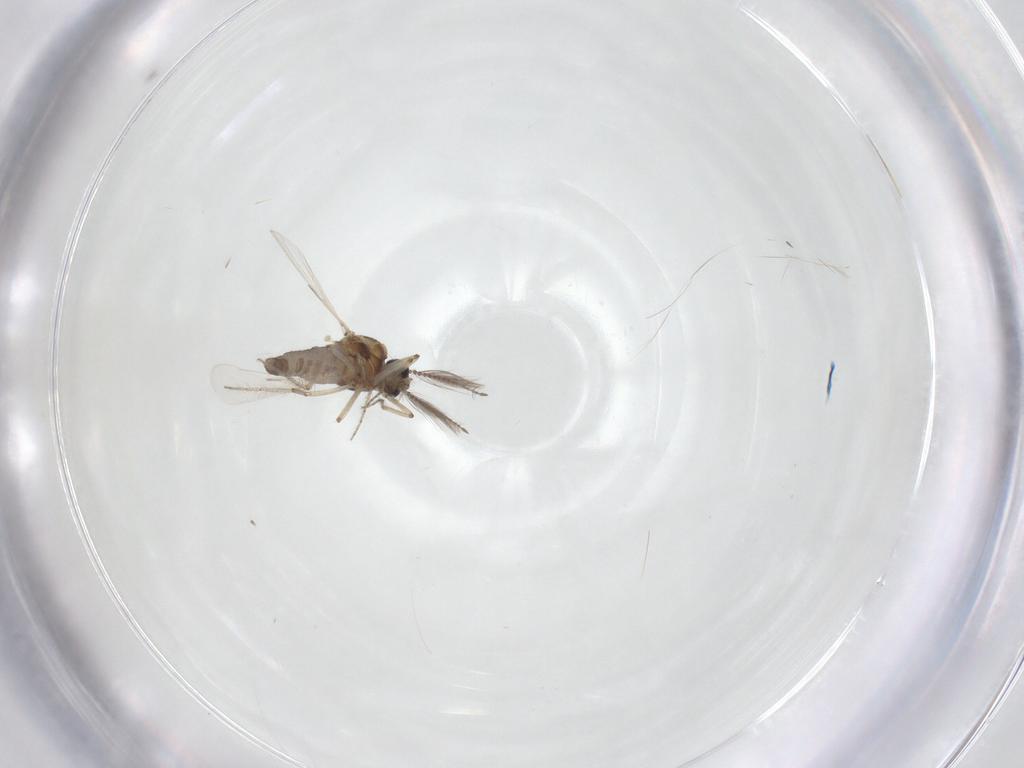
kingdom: Animalia
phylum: Arthropoda
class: Insecta
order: Diptera
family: Ceratopogonidae
